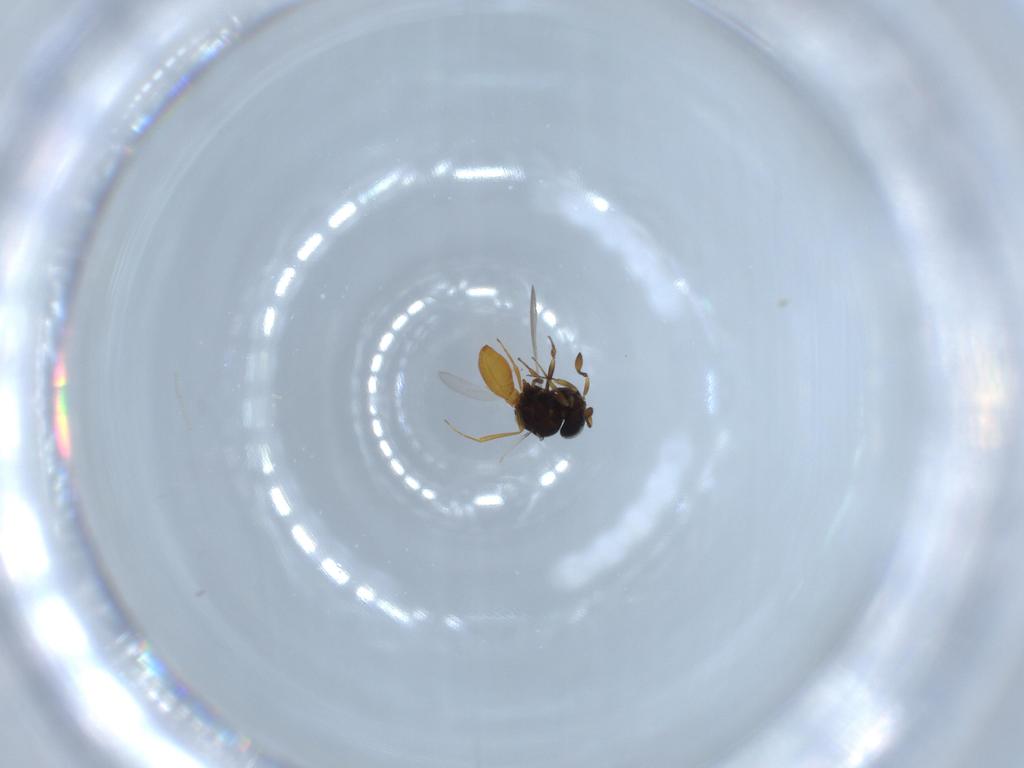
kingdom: Animalia
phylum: Arthropoda
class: Insecta
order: Hymenoptera
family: Scelionidae
